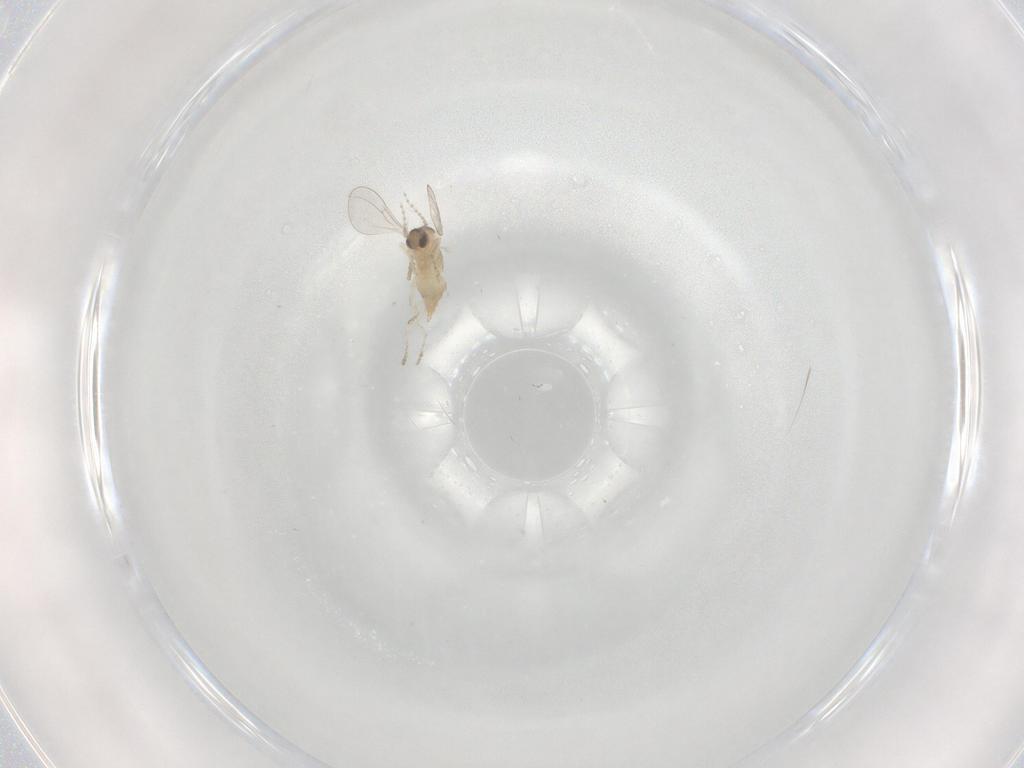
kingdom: Animalia
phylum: Arthropoda
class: Insecta
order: Diptera
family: Cecidomyiidae
